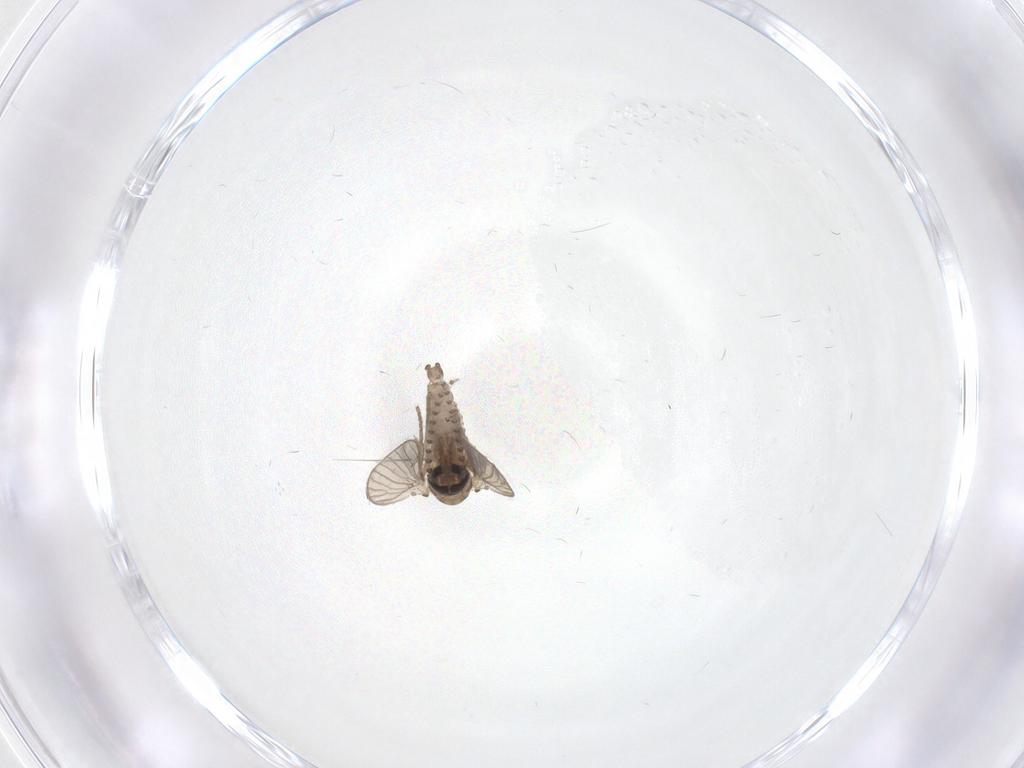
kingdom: Animalia
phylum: Arthropoda
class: Insecta
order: Diptera
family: Psychodidae
